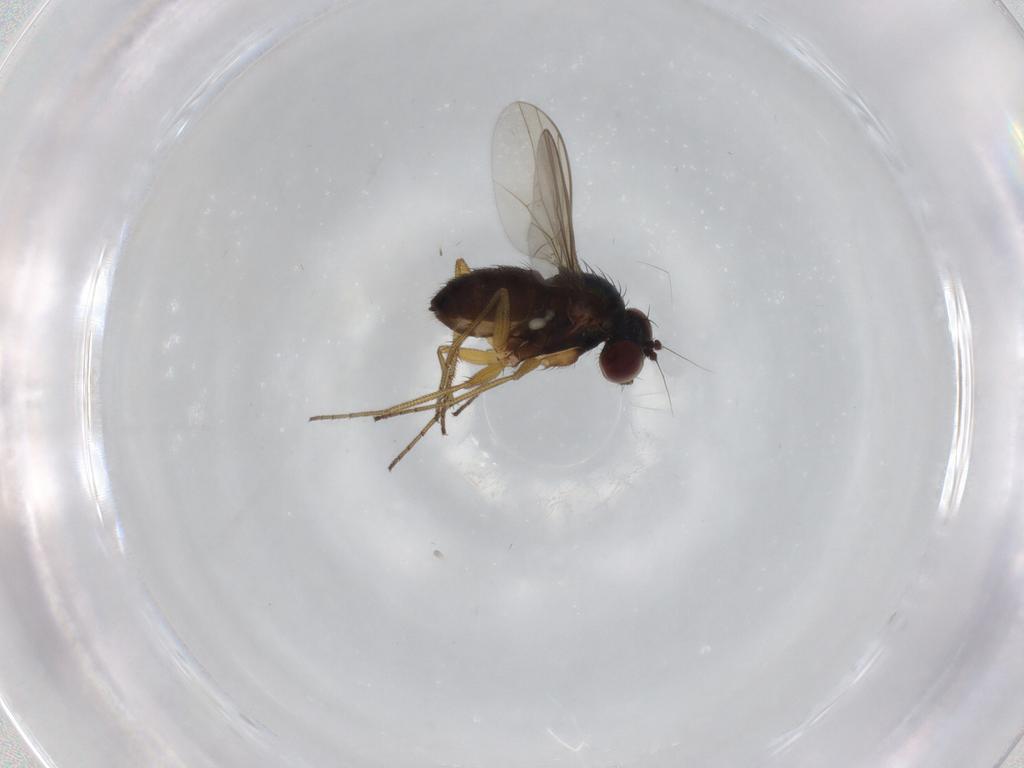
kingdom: Animalia
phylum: Arthropoda
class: Insecta
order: Diptera
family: Dolichopodidae
